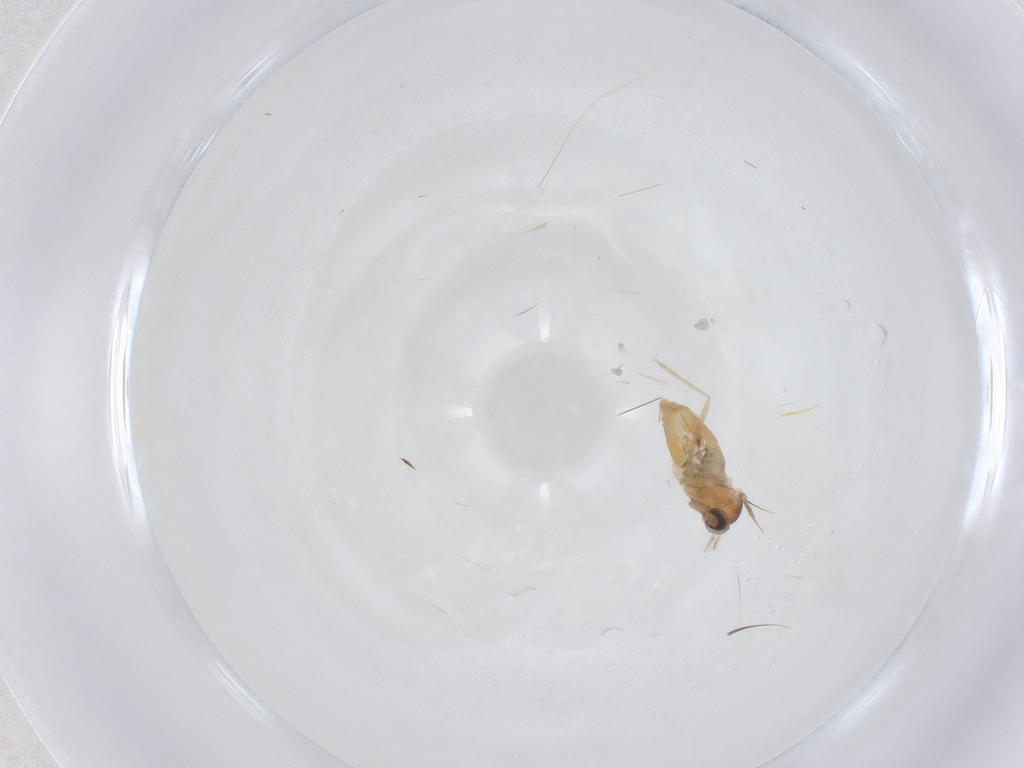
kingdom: Animalia
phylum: Arthropoda
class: Insecta
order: Diptera
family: Cecidomyiidae
